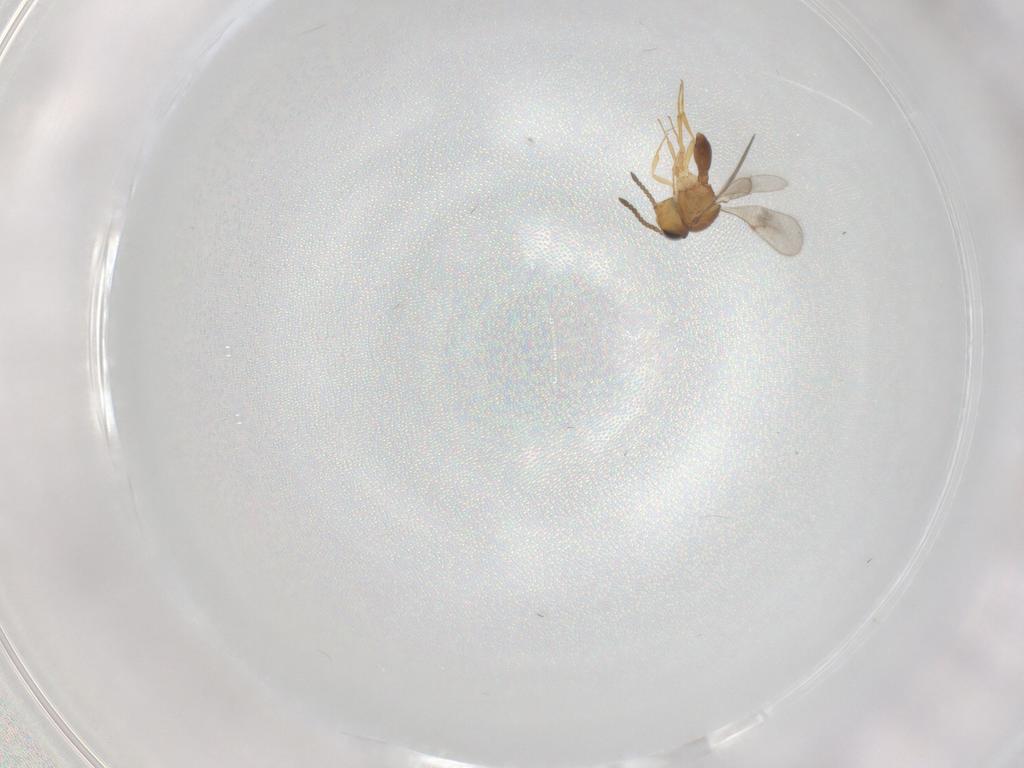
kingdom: Animalia
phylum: Arthropoda
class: Insecta
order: Hymenoptera
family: Scelionidae
